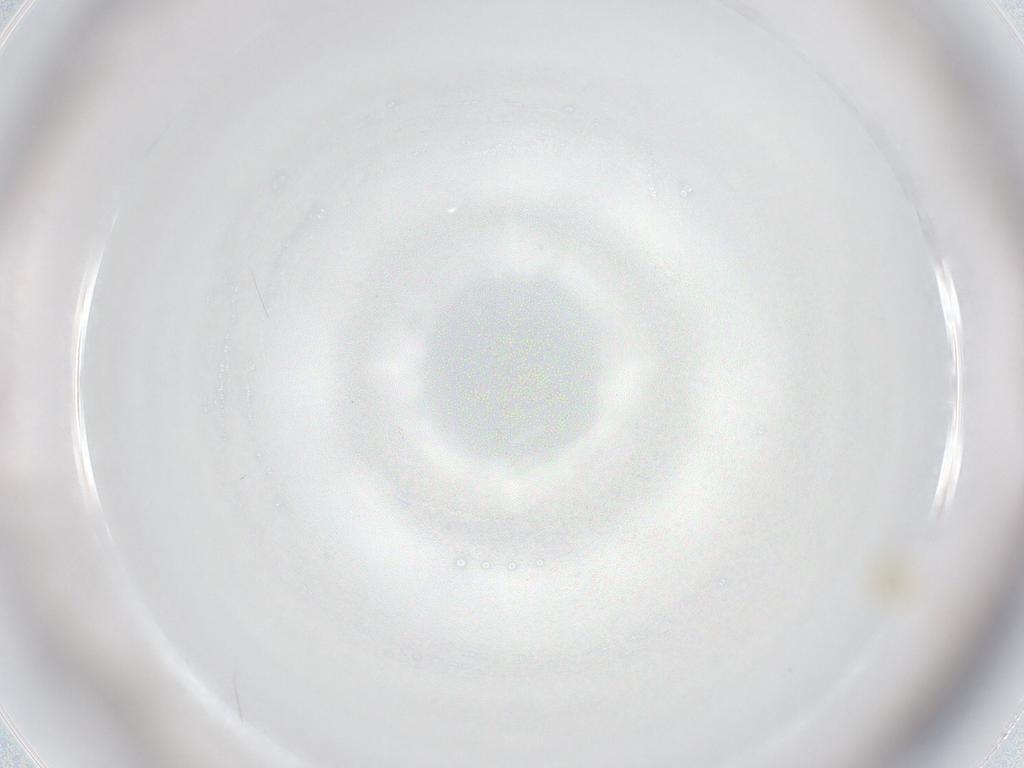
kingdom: Animalia
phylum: Arthropoda
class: Arachnida
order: Trombidiformes
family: Tetranychidae
